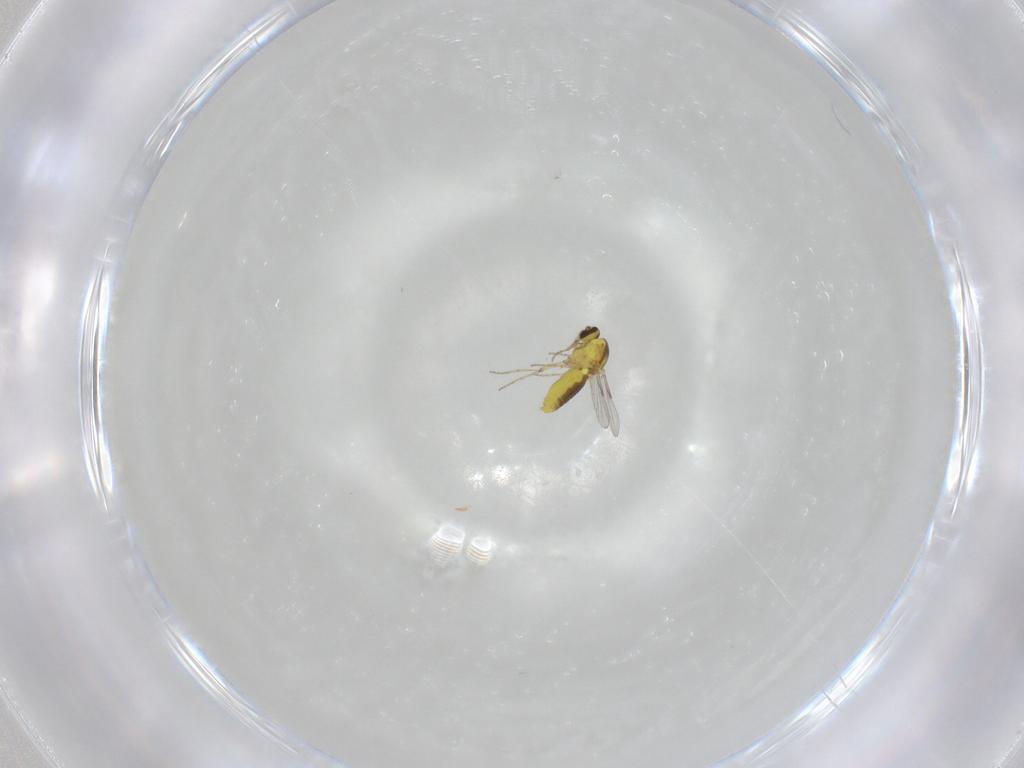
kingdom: Animalia
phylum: Arthropoda
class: Insecta
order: Diptera
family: Ceratopogonidae
